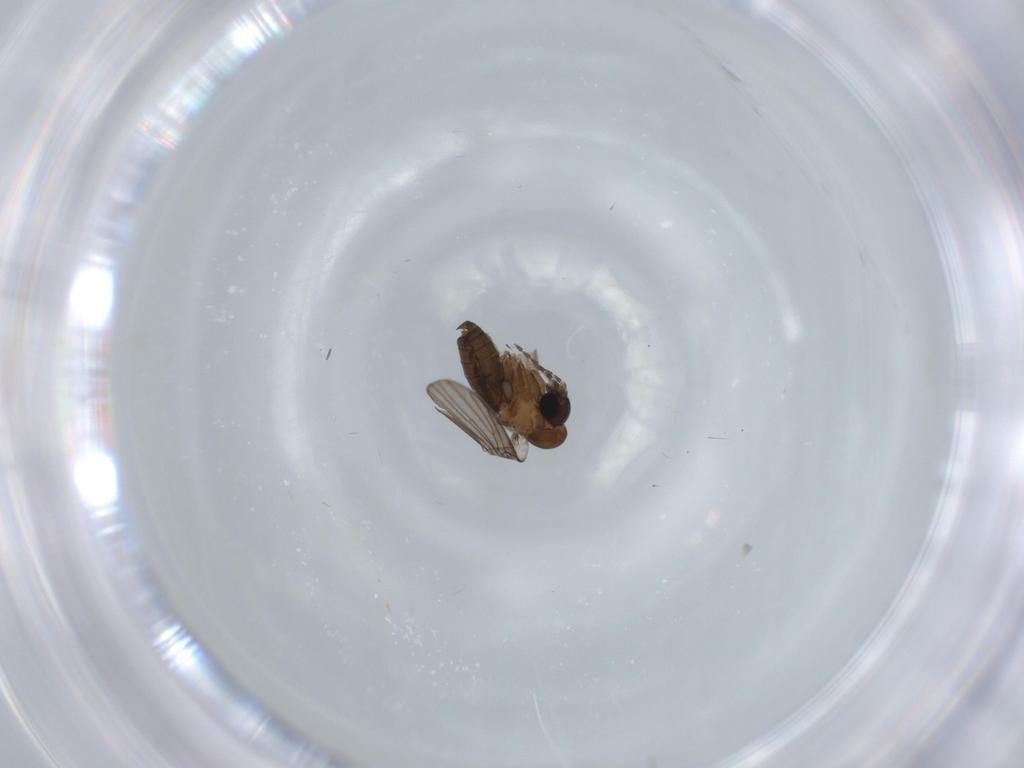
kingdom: Animalia
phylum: Arthropoda
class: Insecta
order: Diptera
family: Psychodidae
